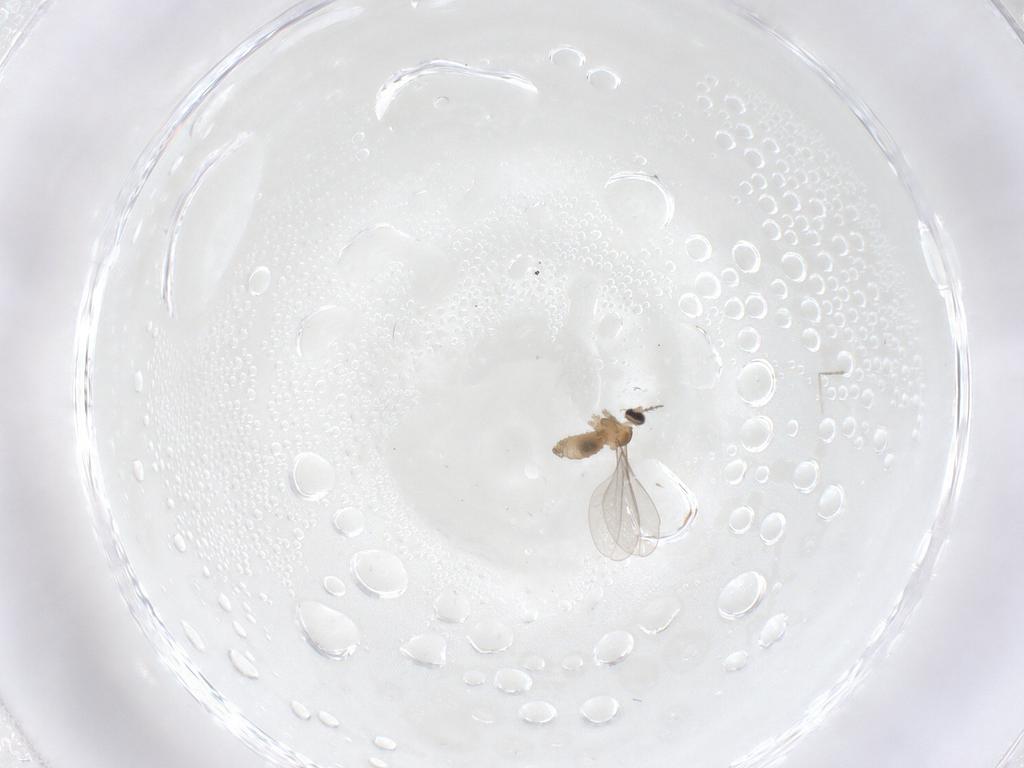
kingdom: Animalia
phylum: Arthropoda
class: Insecta
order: Diptera
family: Cecidomyiidae
